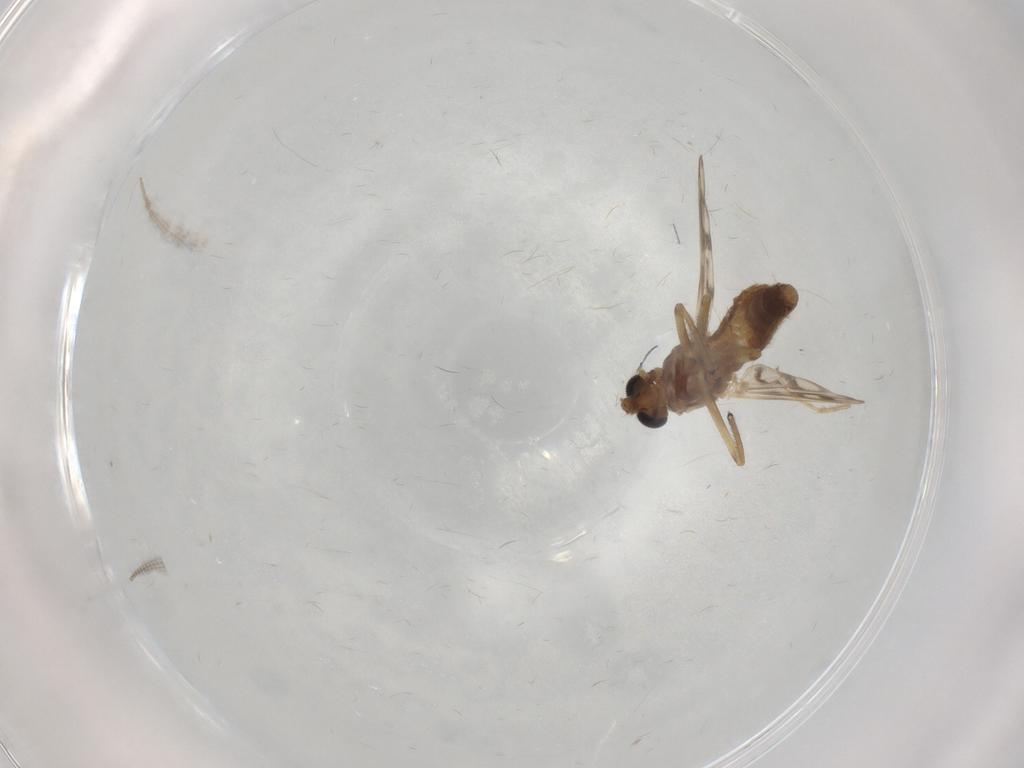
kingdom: Animalia
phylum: Arthropoda
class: Insecta
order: Diptera
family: Chironomidae
